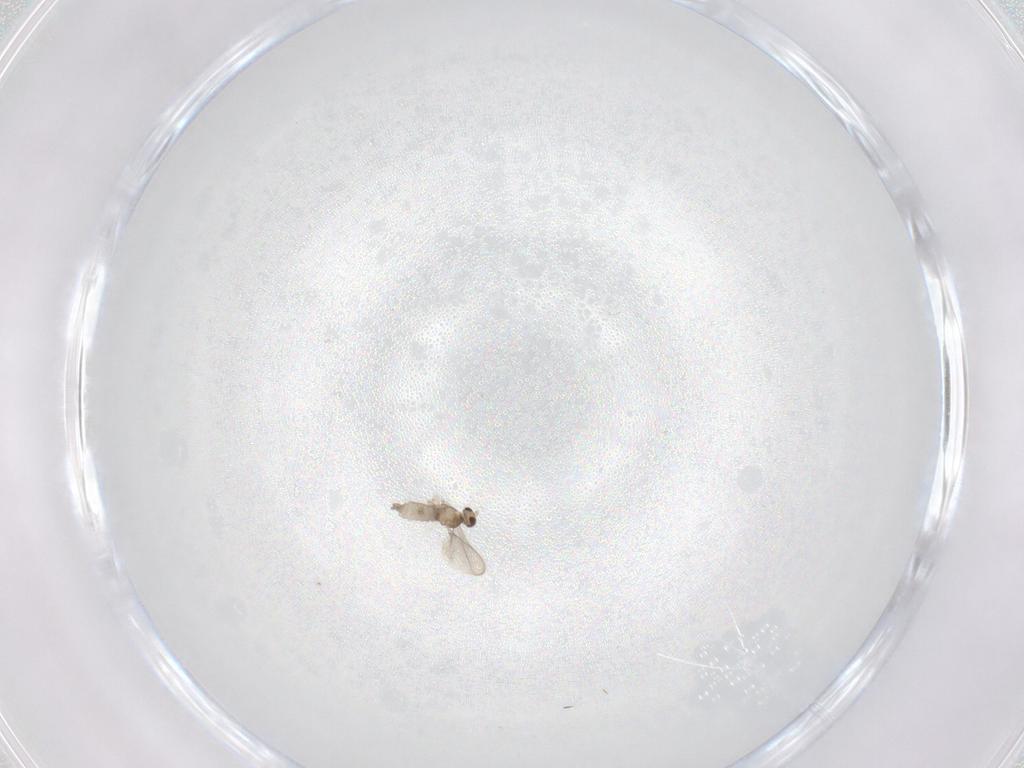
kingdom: Animalia
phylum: Arthropoda
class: Insecta
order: Diptera
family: Cecidomyiidae
